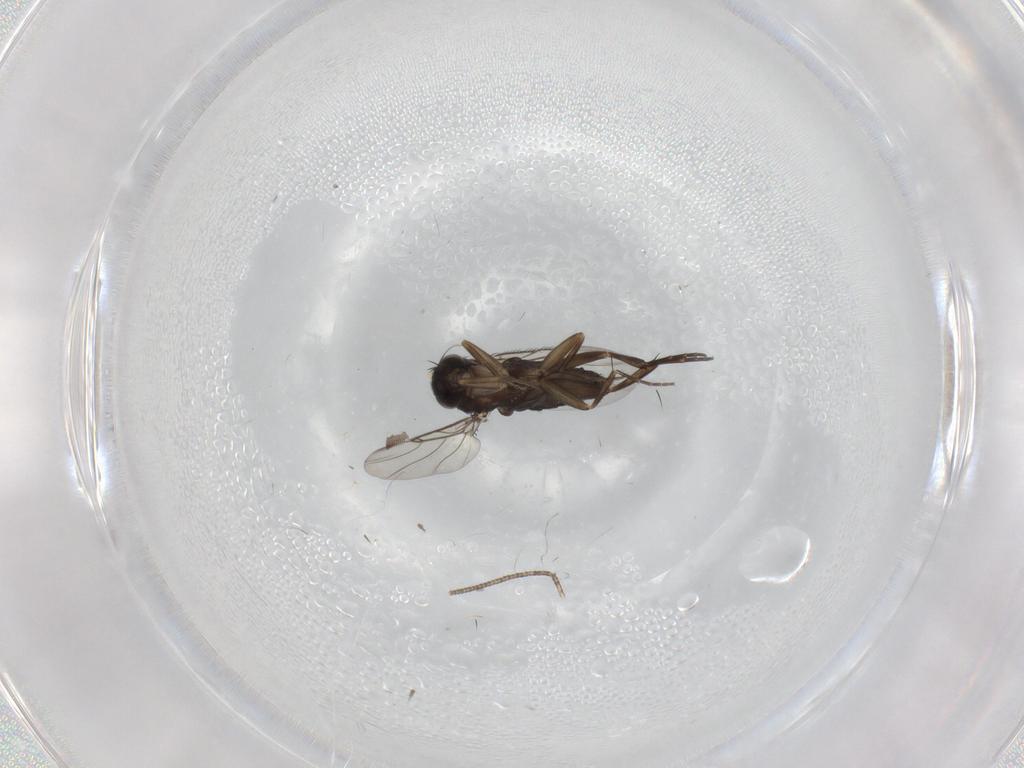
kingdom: Animalia
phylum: Arthropoda
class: Insecta
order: Diptera
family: Phoridae
